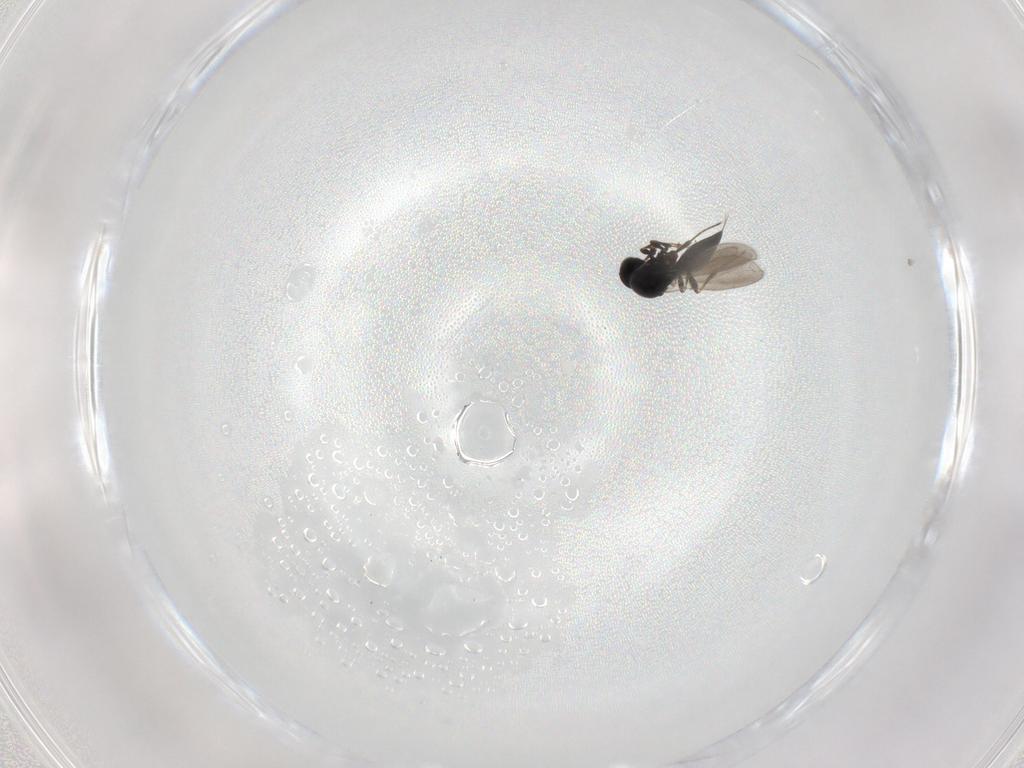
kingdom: Animalia
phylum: Arthropoda
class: Insecta
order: Hymenoptera
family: Platygastridae
